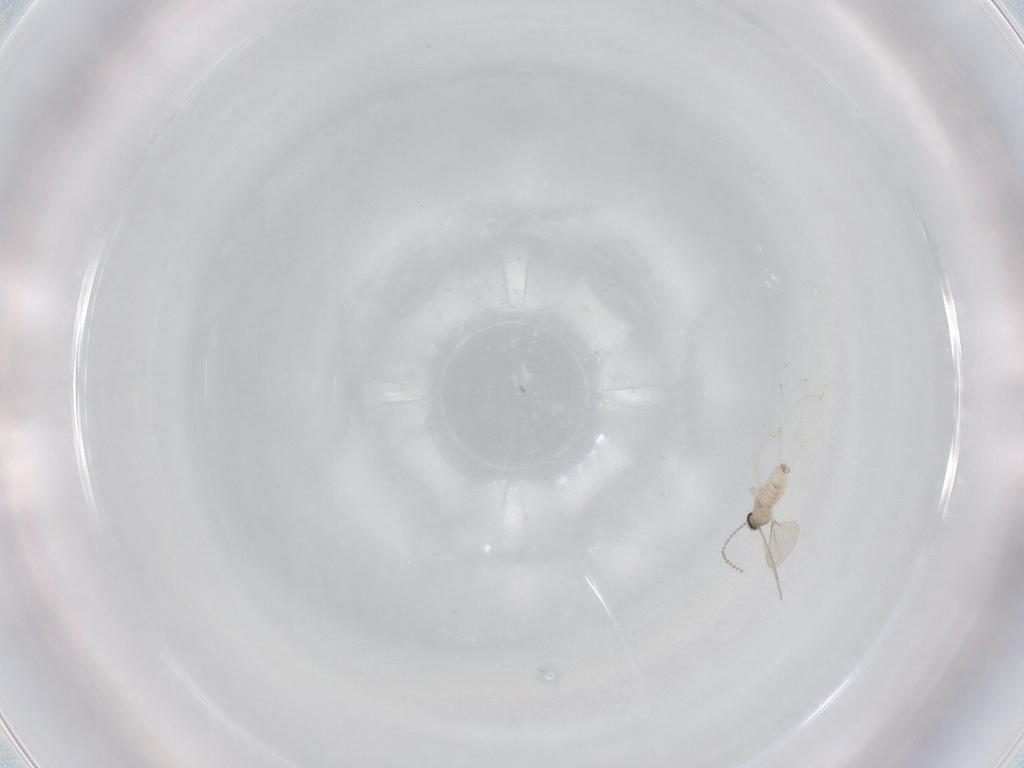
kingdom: Animalia
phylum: Arthropoda
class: Insecta
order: Diptera
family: Cecidomyiidae
